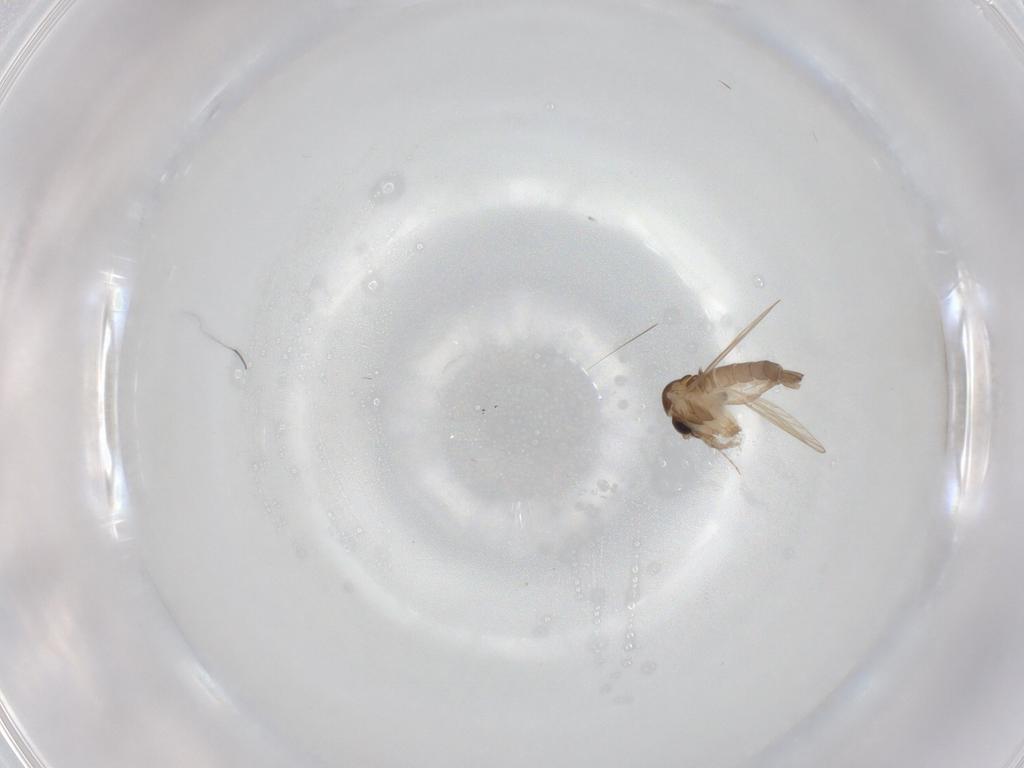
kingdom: Animalia
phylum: Arthropoda
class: Insecta
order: Diptera
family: Psychodidae
